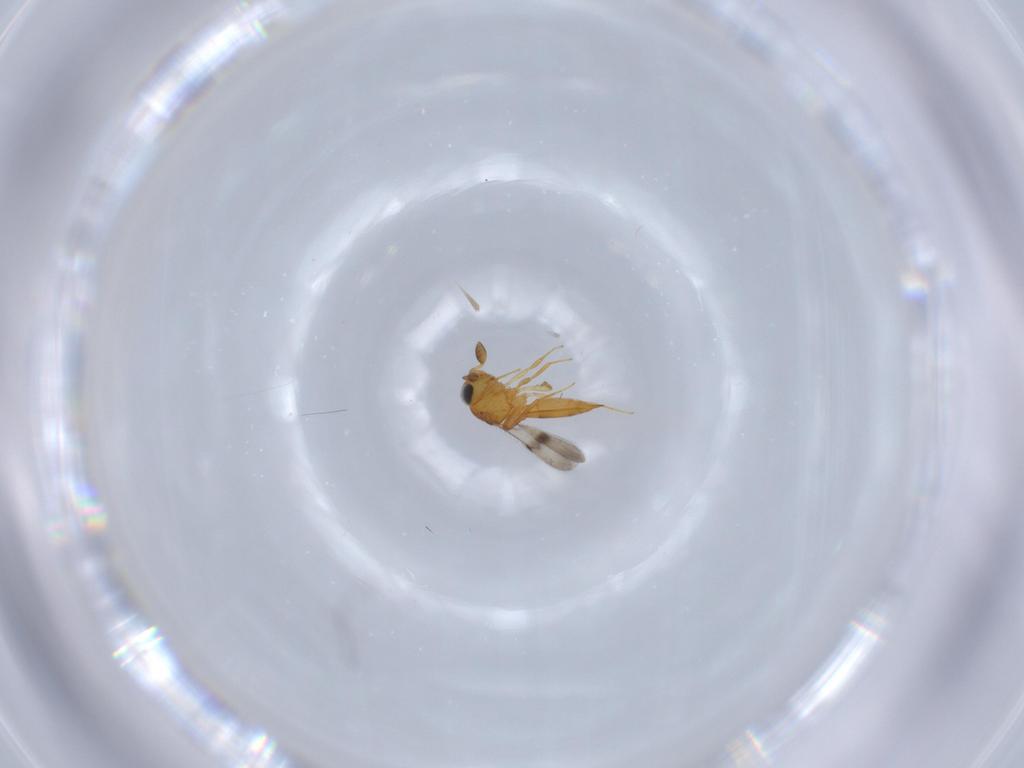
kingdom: Animalia
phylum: Arthropoda
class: Insecta
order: Hymenoptera
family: Scelionidae
